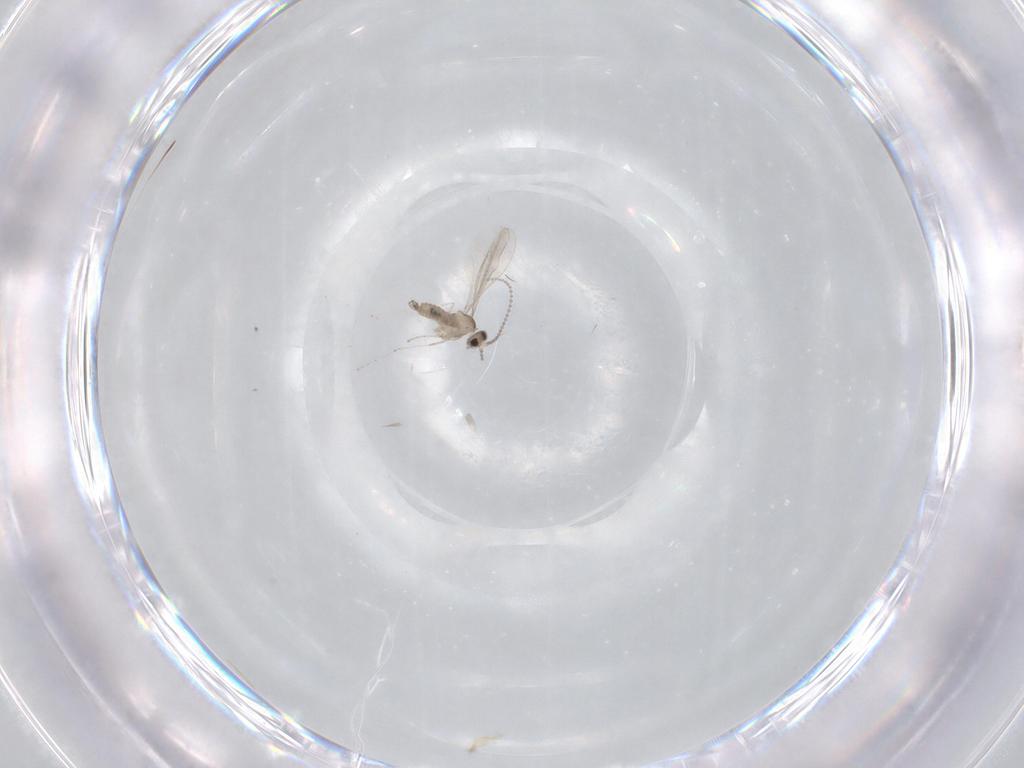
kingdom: Animalia
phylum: Arthropoda
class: Insecta
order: Diptera
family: Cecidomyiidae
